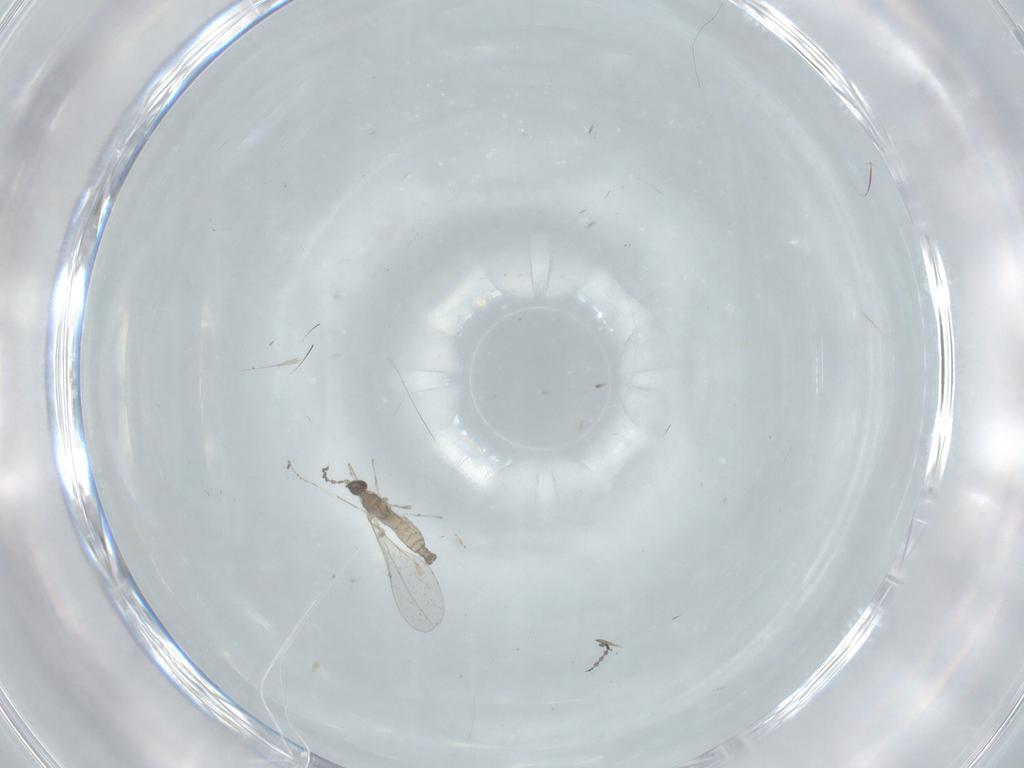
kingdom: Animalia
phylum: Arthropoda
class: Insecta
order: Diptera
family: Cecidomyiidae
